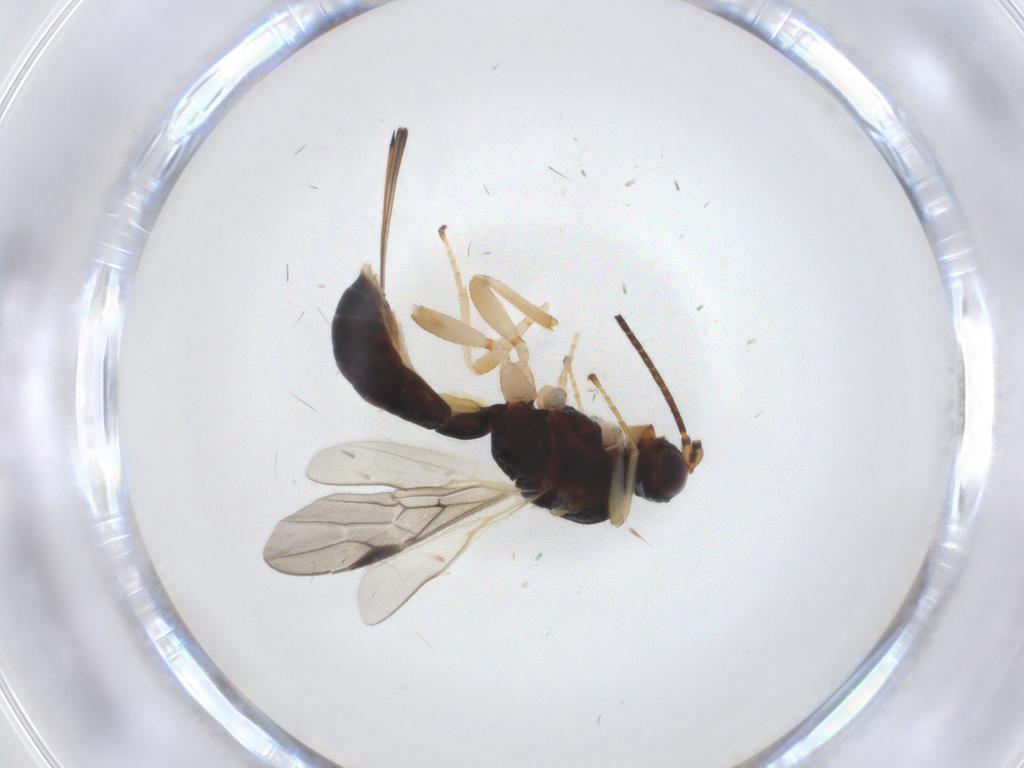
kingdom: Animalia
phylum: Arthropoda
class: Insecta
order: Hymenoptera
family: Braconidae
